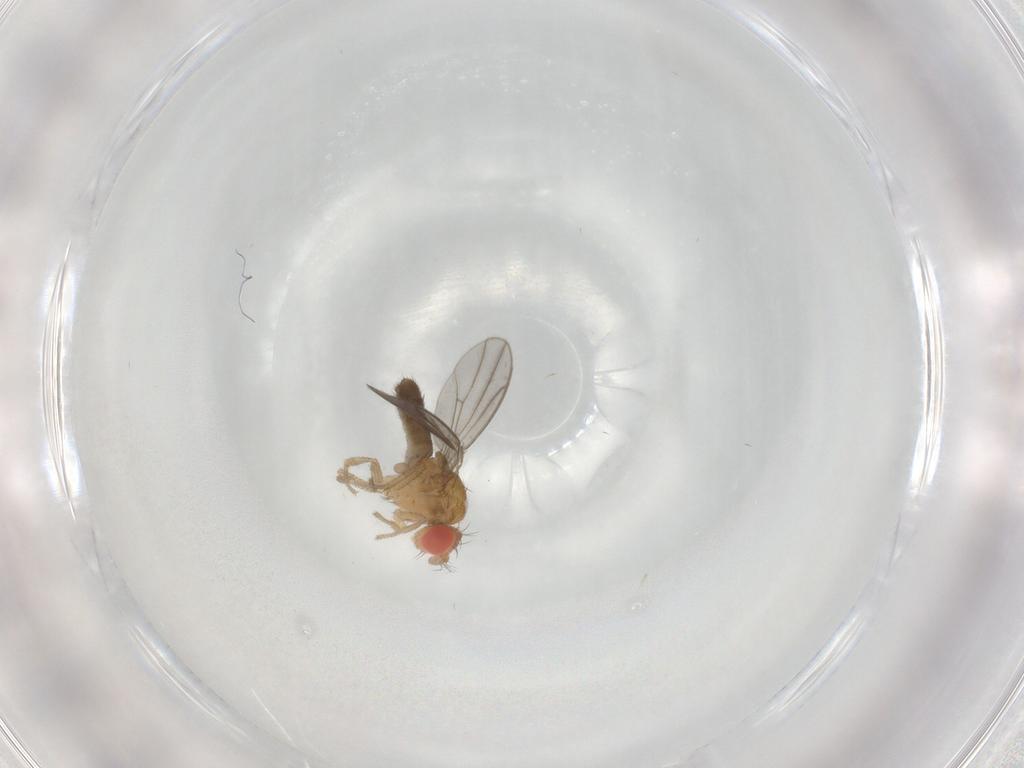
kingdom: Animalia
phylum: Arthropoda
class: Insecta
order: Diptera
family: Drosophilidae
